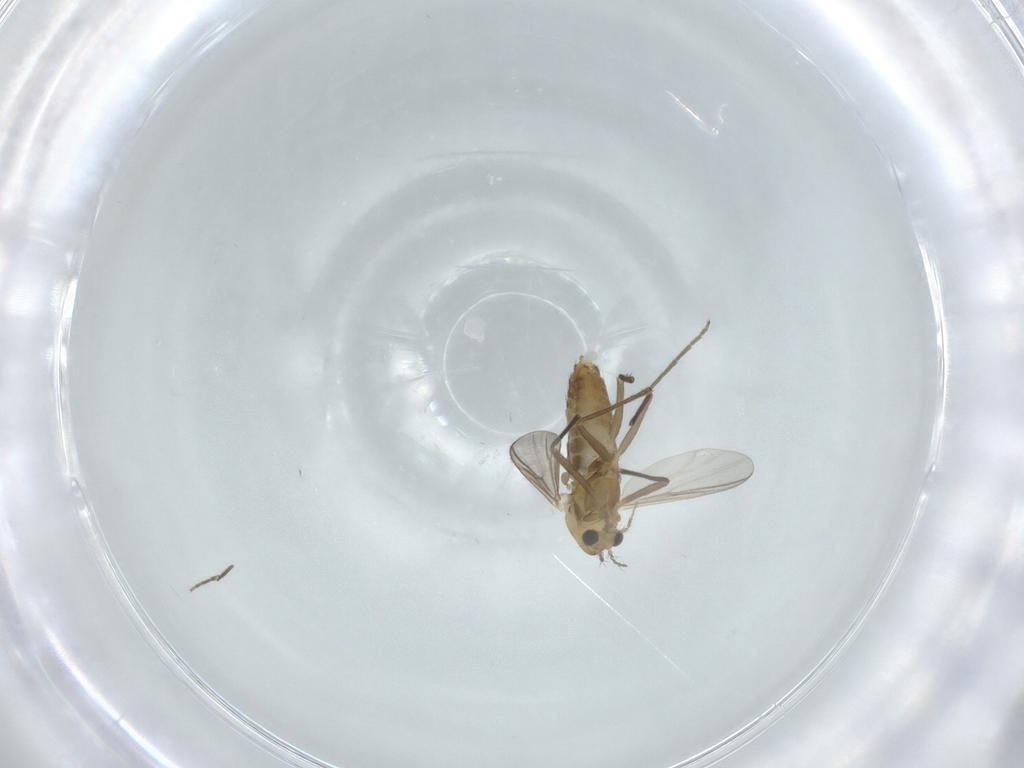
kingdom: Animalia
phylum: Arthropoda
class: Insecta
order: Diptera
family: Chironomidae
